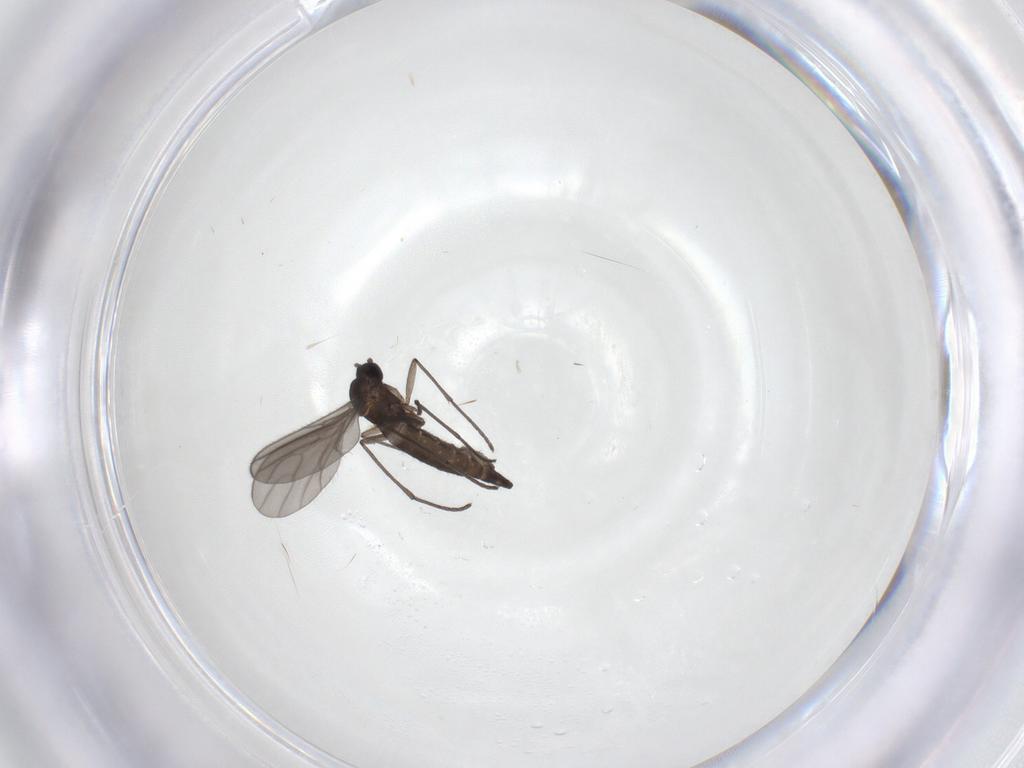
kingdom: Animalia
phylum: Arthropoda
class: Insecta
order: Diptera
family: Sciaridae
